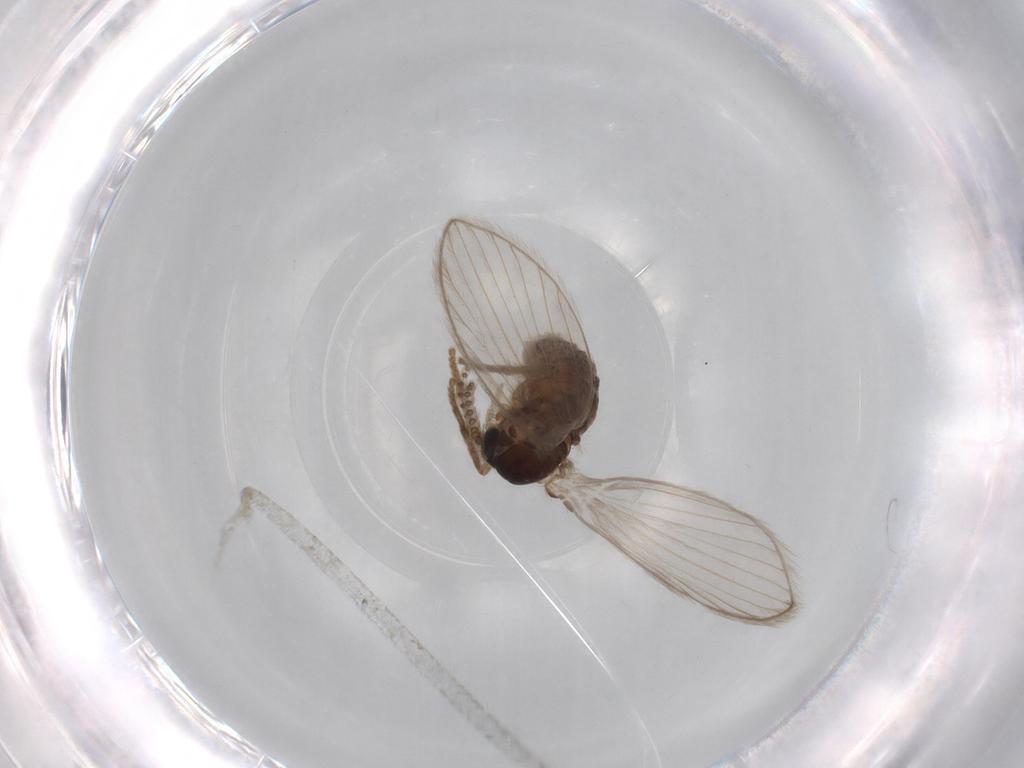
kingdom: Animalia
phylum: Arthropoda
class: Insecta
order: Diptera
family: Psychodidae
